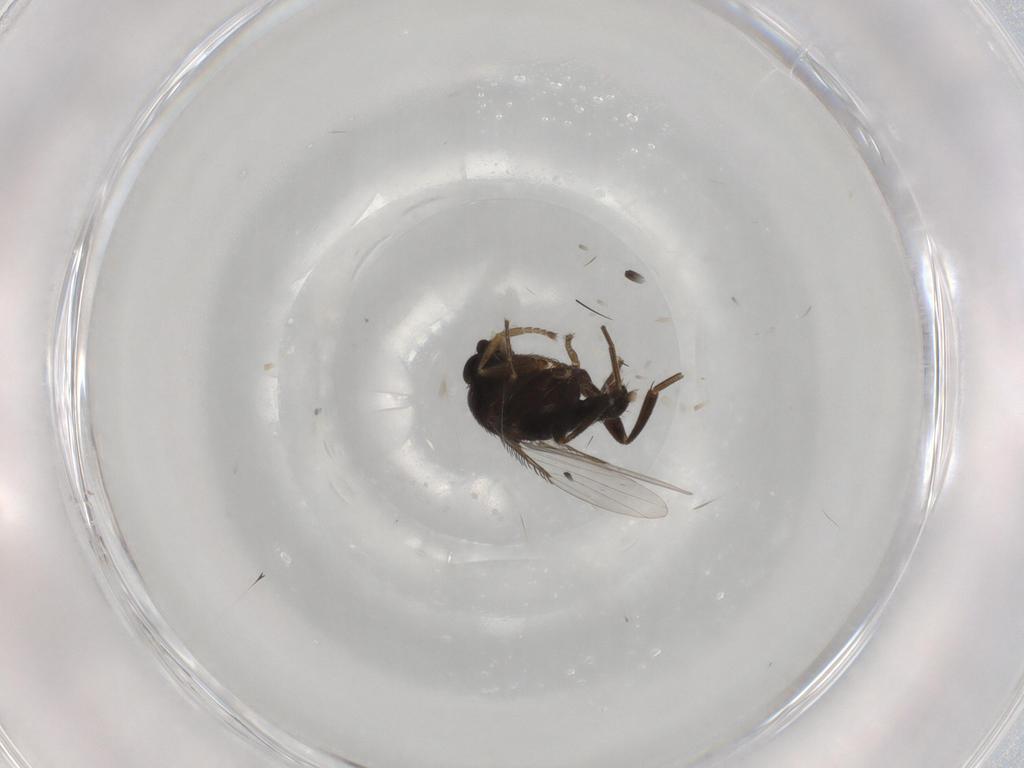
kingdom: Animalia
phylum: Arthropoda
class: Insecta
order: Diptera
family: Phoridae
